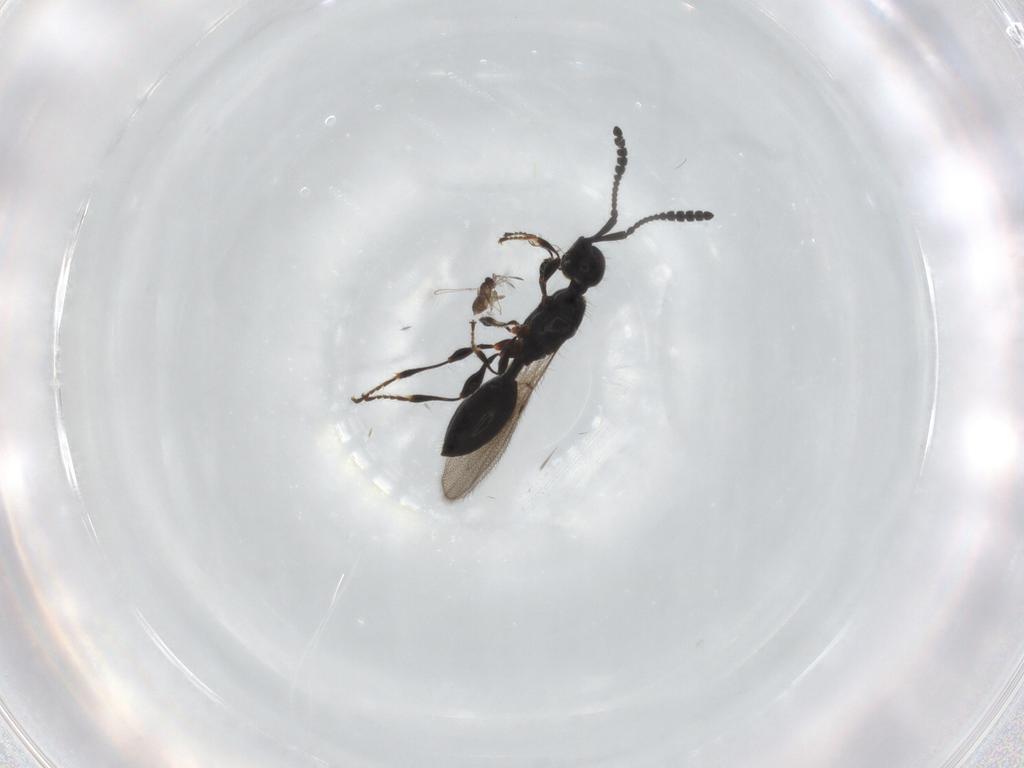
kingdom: Animalia
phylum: Arthropoda
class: Insecta
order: Hymenoptera
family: Diapriidae
